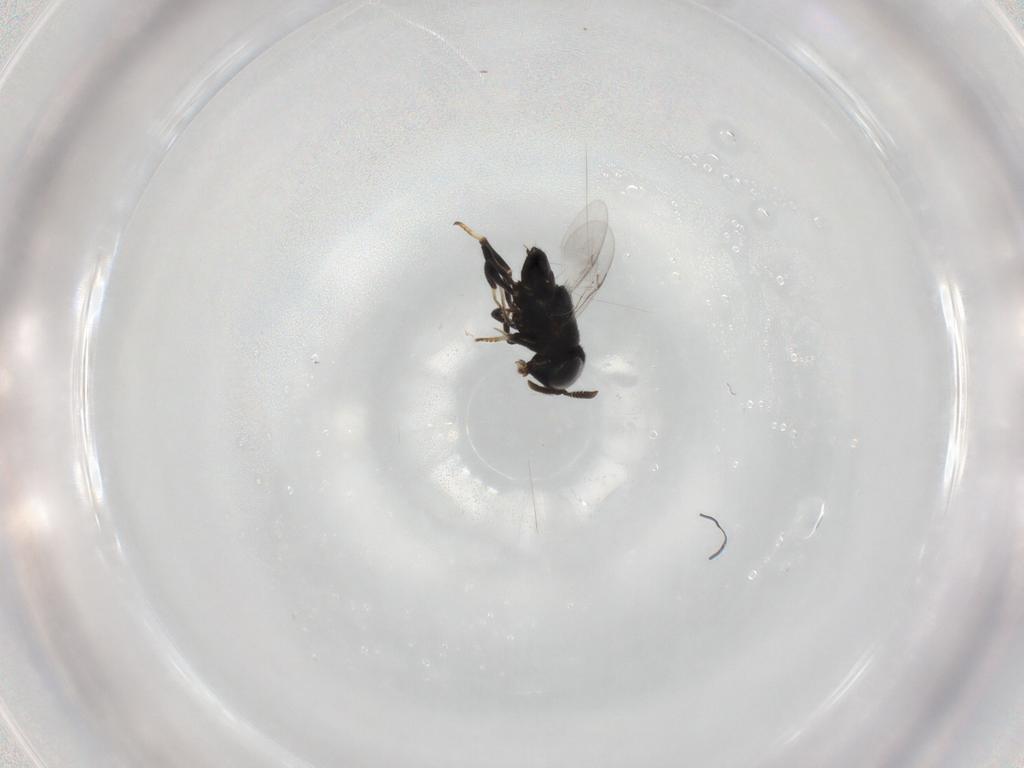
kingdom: Animalia
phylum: Arthropoda
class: Insecta
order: Hymenoptera
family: Encyrtidae
